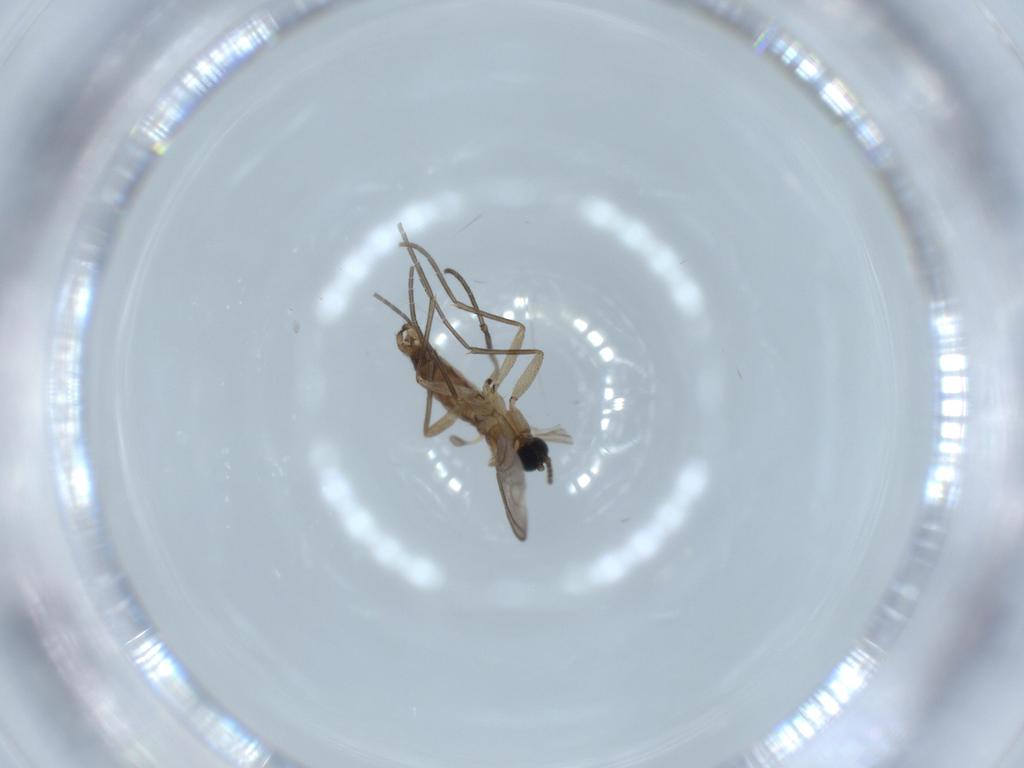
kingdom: Animalia
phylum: Arthropoda
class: Insecta
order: Diptera
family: Sciaridae
